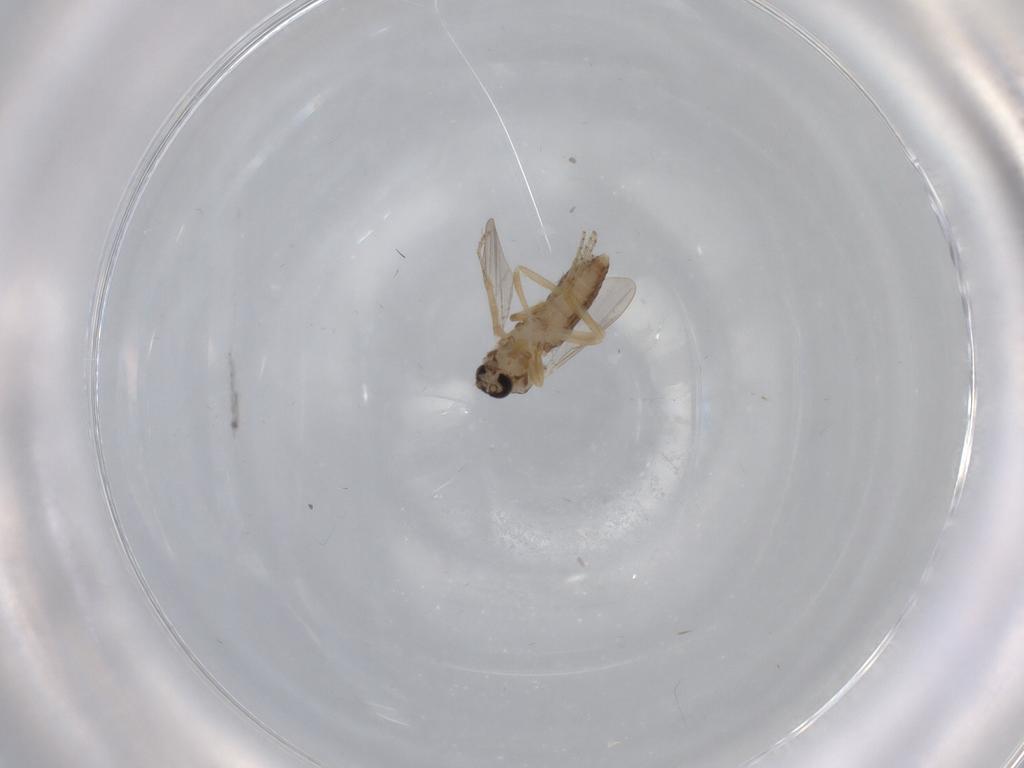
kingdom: Animalia
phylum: Arthropoda
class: Insecta
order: Diptera
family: Ceratopogonidae
